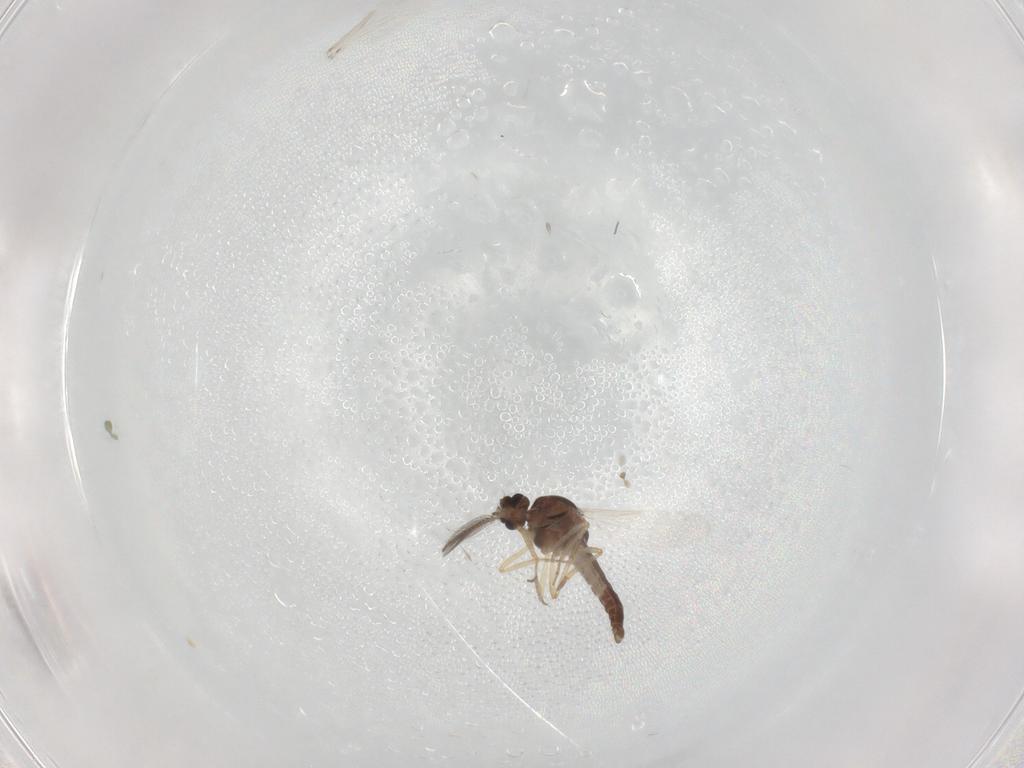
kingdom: Animalia
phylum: Arthropoda
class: Insecta
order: Diptera
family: Ceratopogonidae
